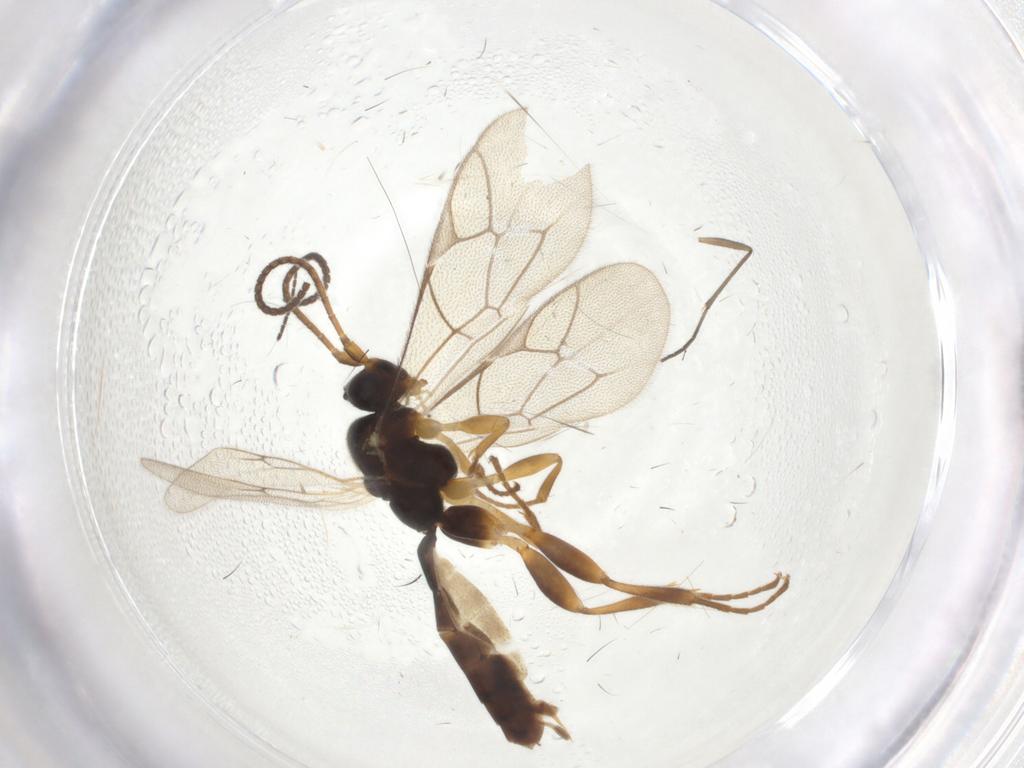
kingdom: Animalia
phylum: Arthropoda
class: Insecta
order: Hymenoptera
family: Ichneumonidae
